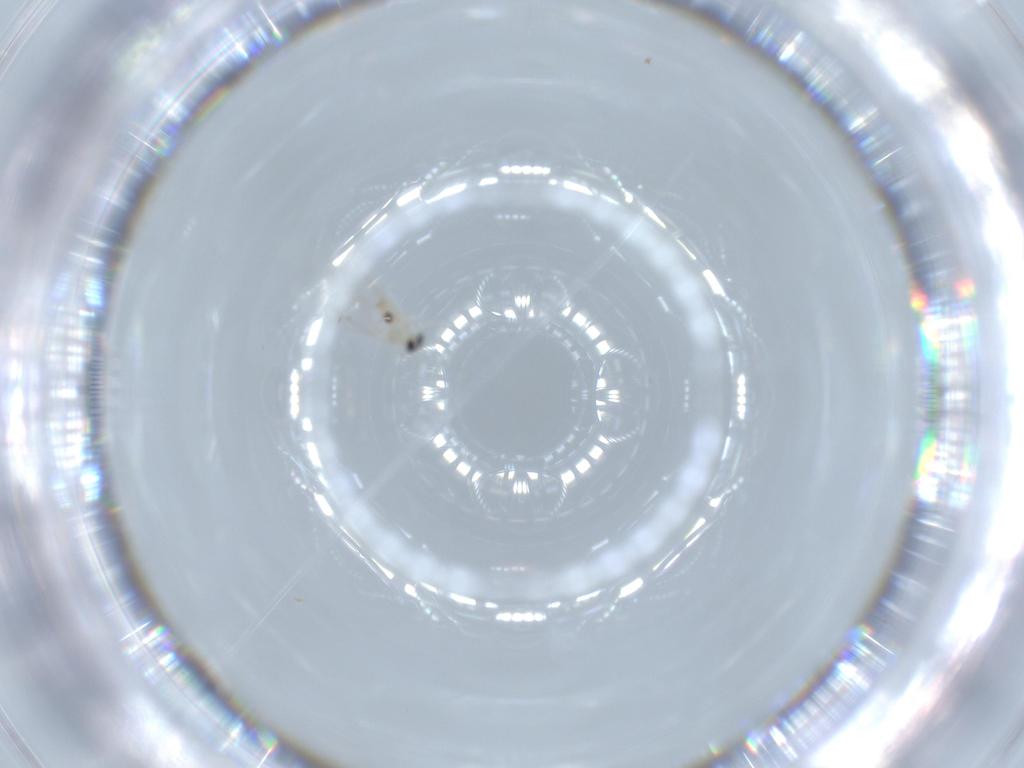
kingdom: Animalia
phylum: Arthropoda
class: Insecta
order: Diptera
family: Cecidomyiidae
